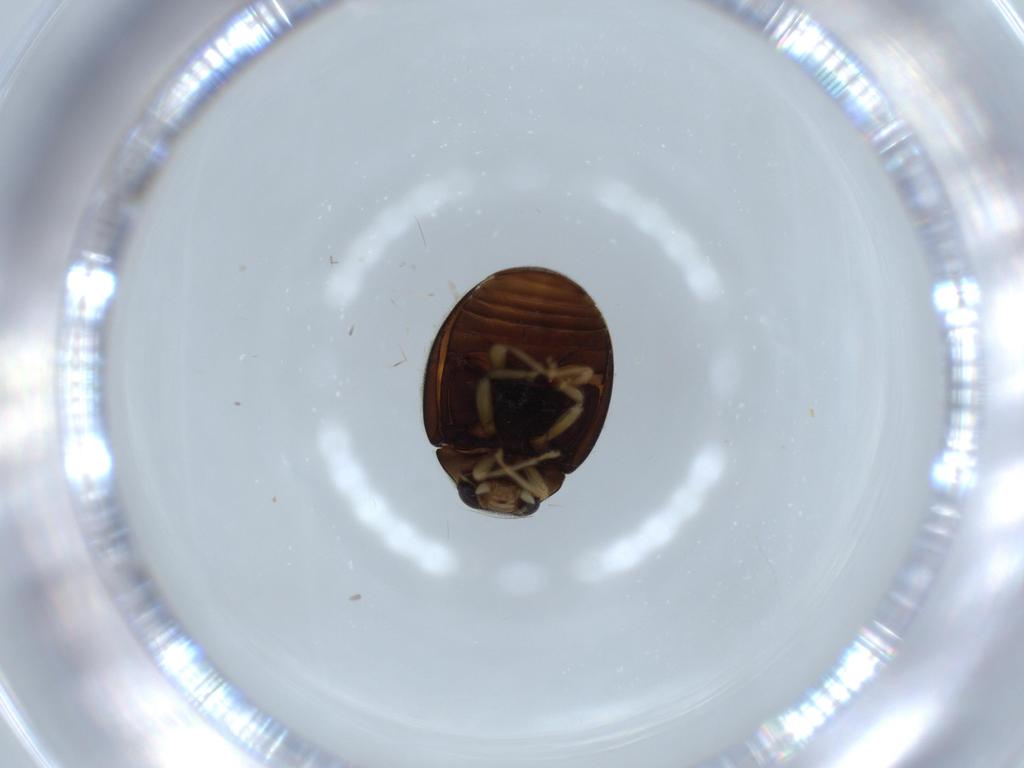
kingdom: Animalia
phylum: Arthropoda
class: Insecta
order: Coleoptera
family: Coccinellidae
